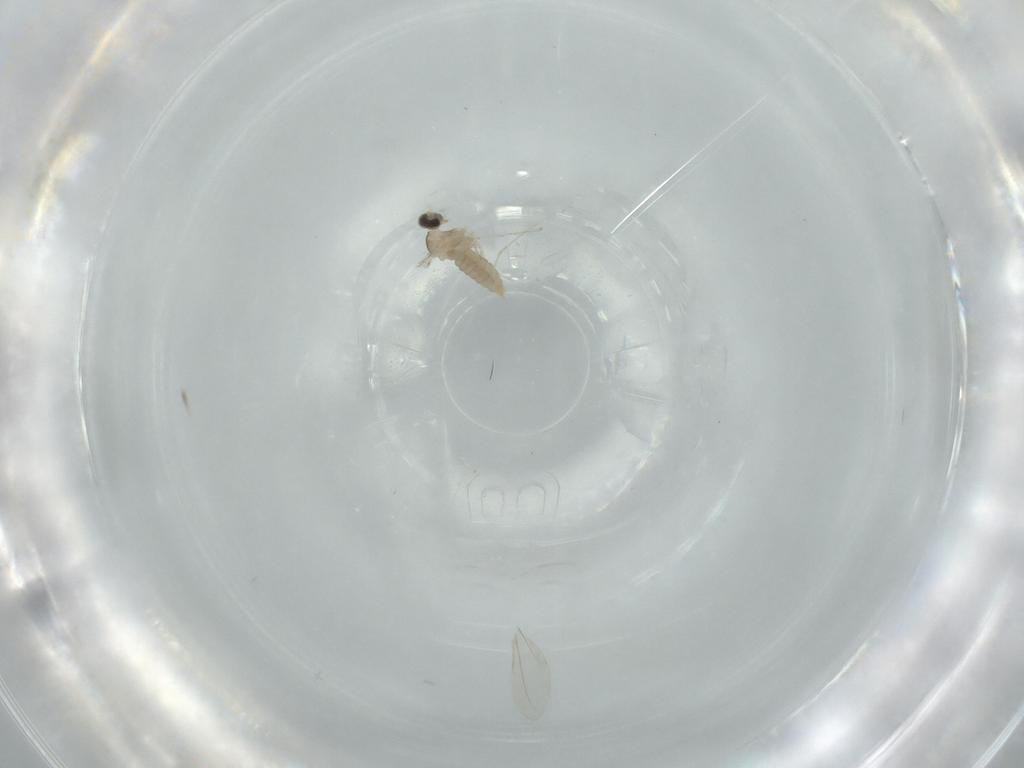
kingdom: Animalia
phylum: Arthropoda
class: Insecta
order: Diptera
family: Cecidomyiidae
